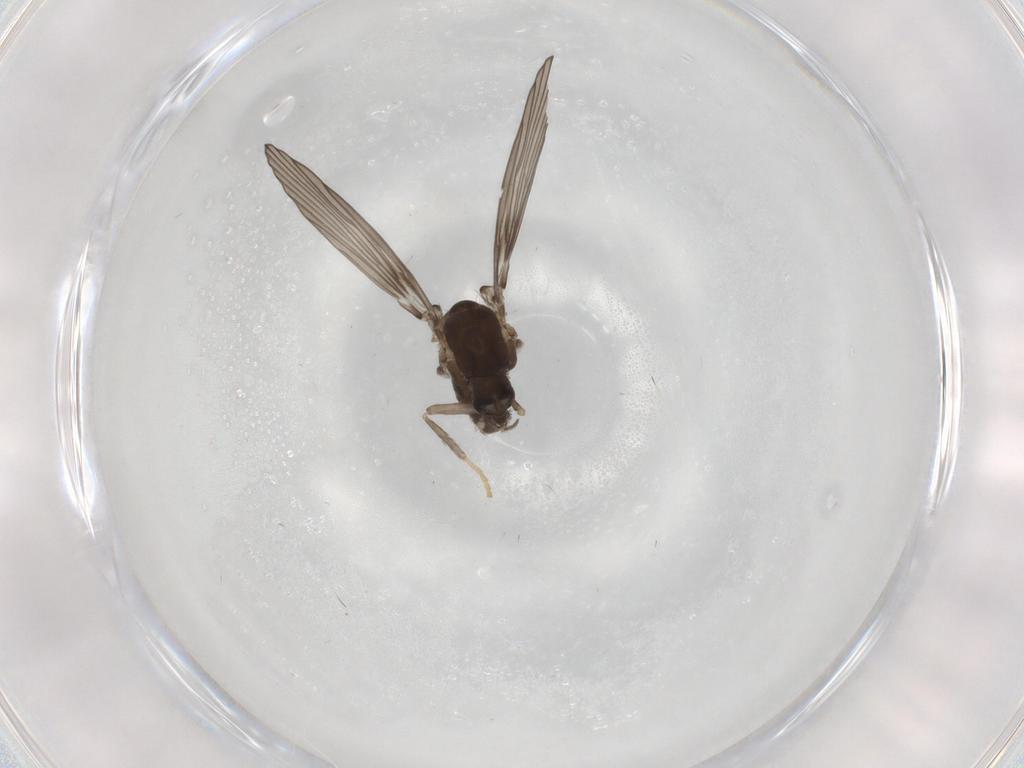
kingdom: Animalia
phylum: Arthropoda
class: Insecta
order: Diptera
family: Psychodidae
